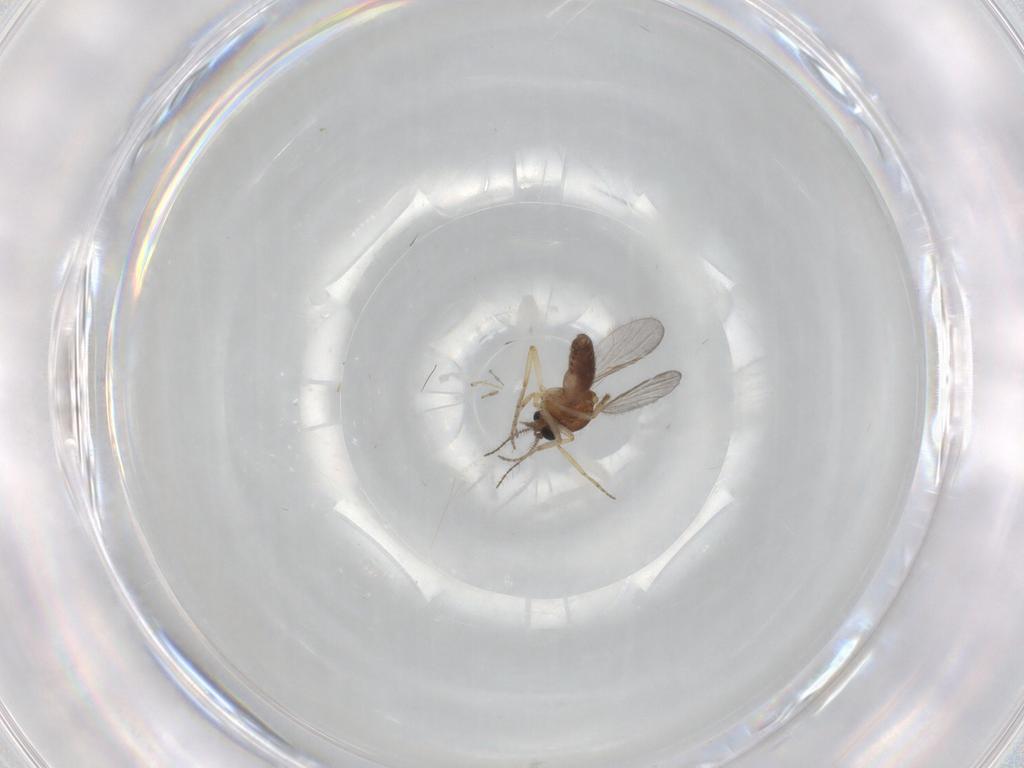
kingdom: Animalia
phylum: Arthropoda
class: Insecta
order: Diptera
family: Ceratopogonidae
